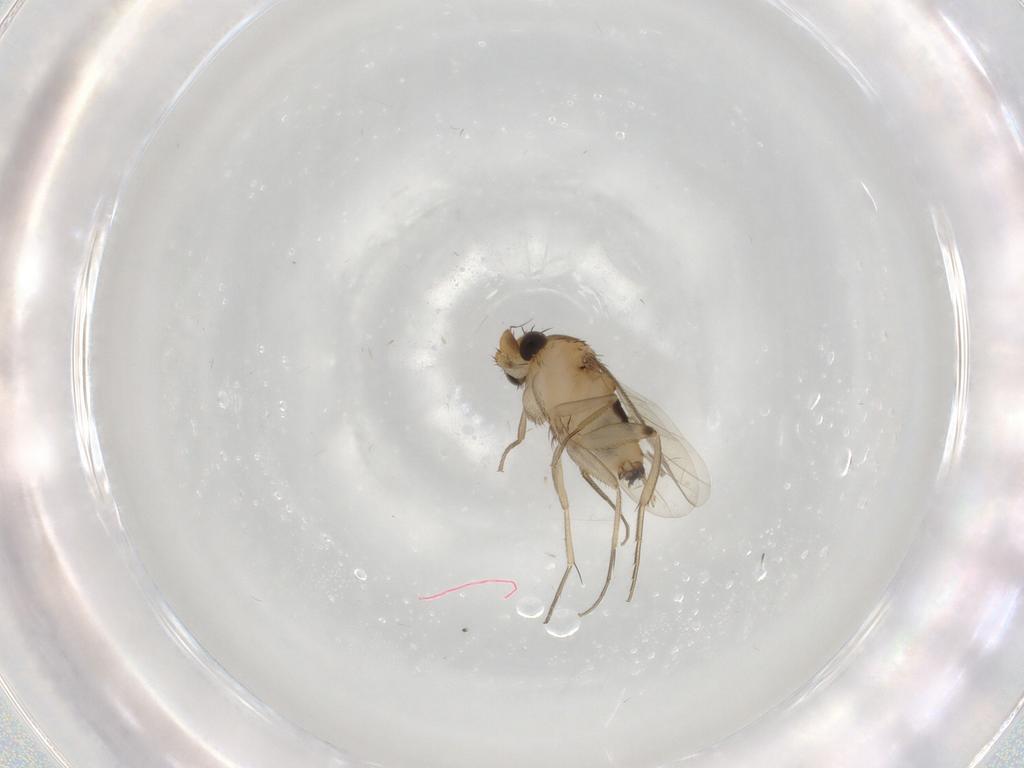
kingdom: Animalia
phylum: Arthropoda
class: Insecta
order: Diptera
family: Phoridae
